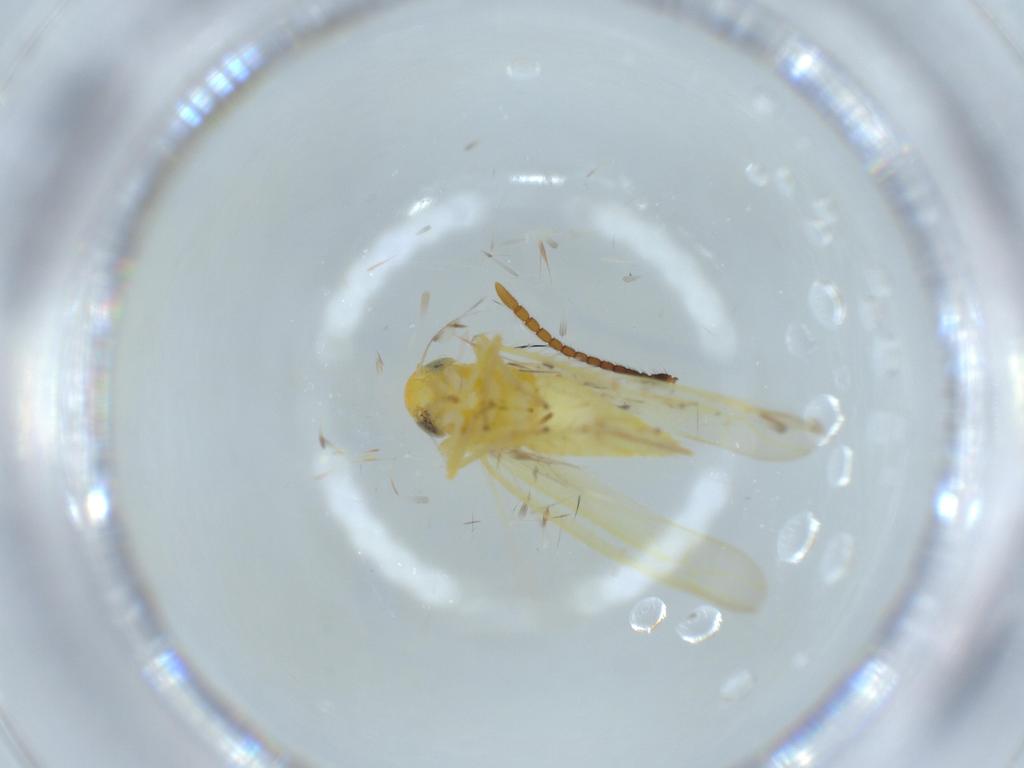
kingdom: Animalia
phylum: Arthropoda
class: Insecta
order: Hemiptera
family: Cicadellidae
